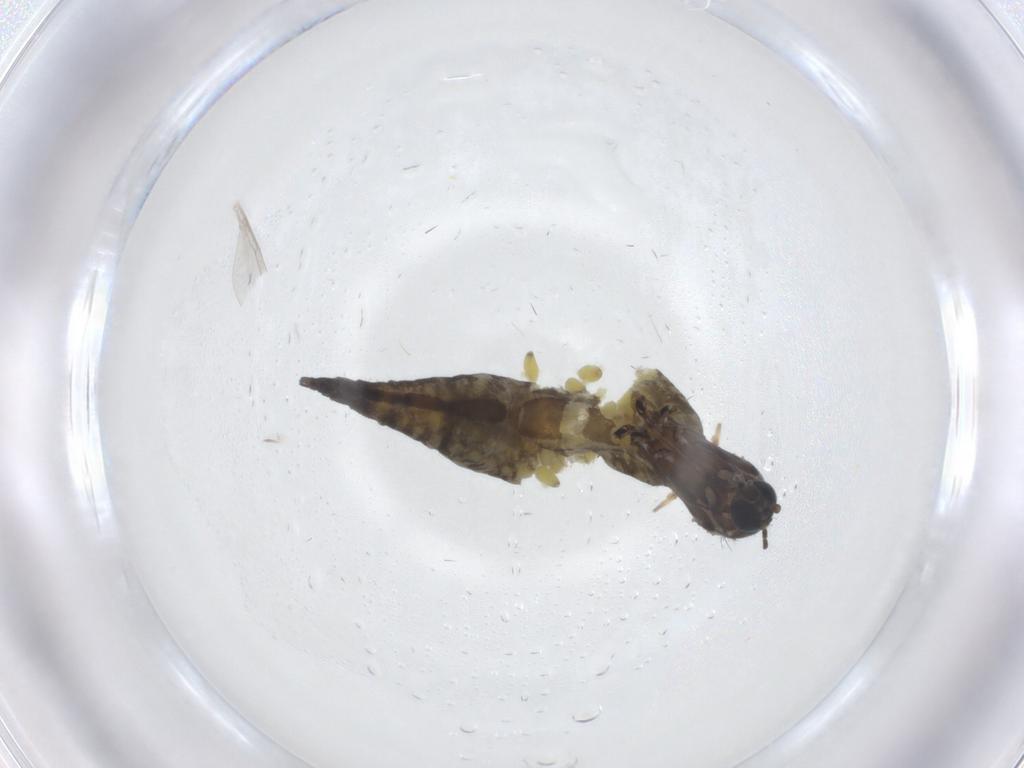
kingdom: Animalia
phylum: Arthropoda
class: Insecta
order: Diptera
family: Sciaridae
